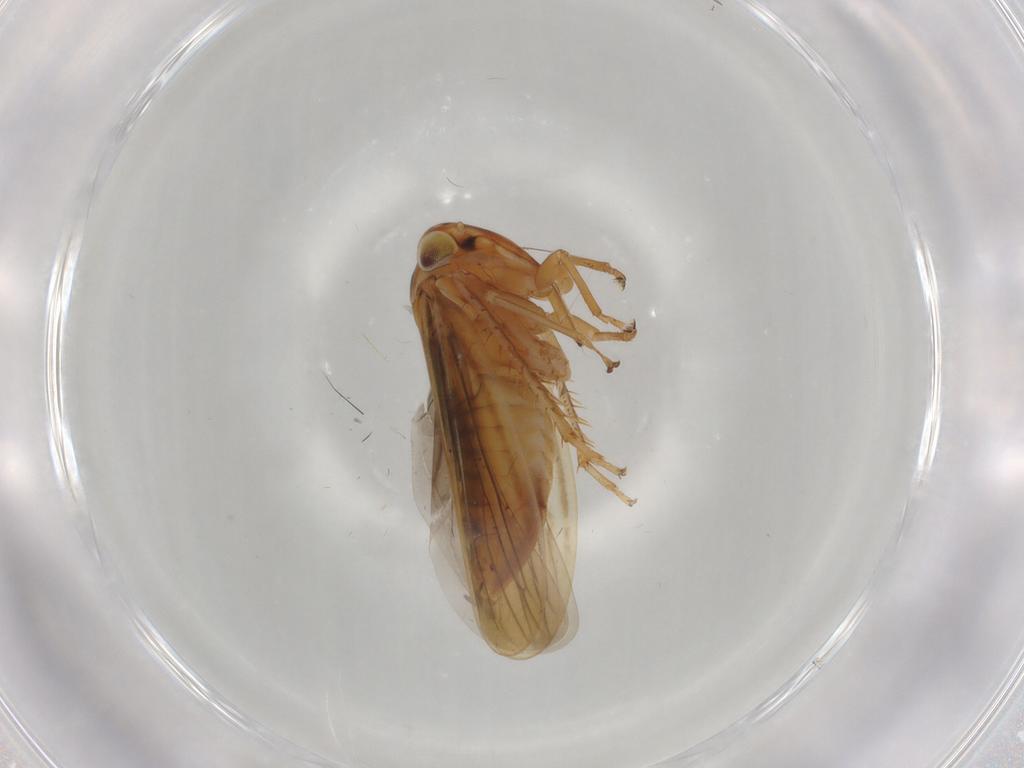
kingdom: Animalia
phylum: Arthropoda
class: Insecta
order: Hemiptera
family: Cicadellidae
